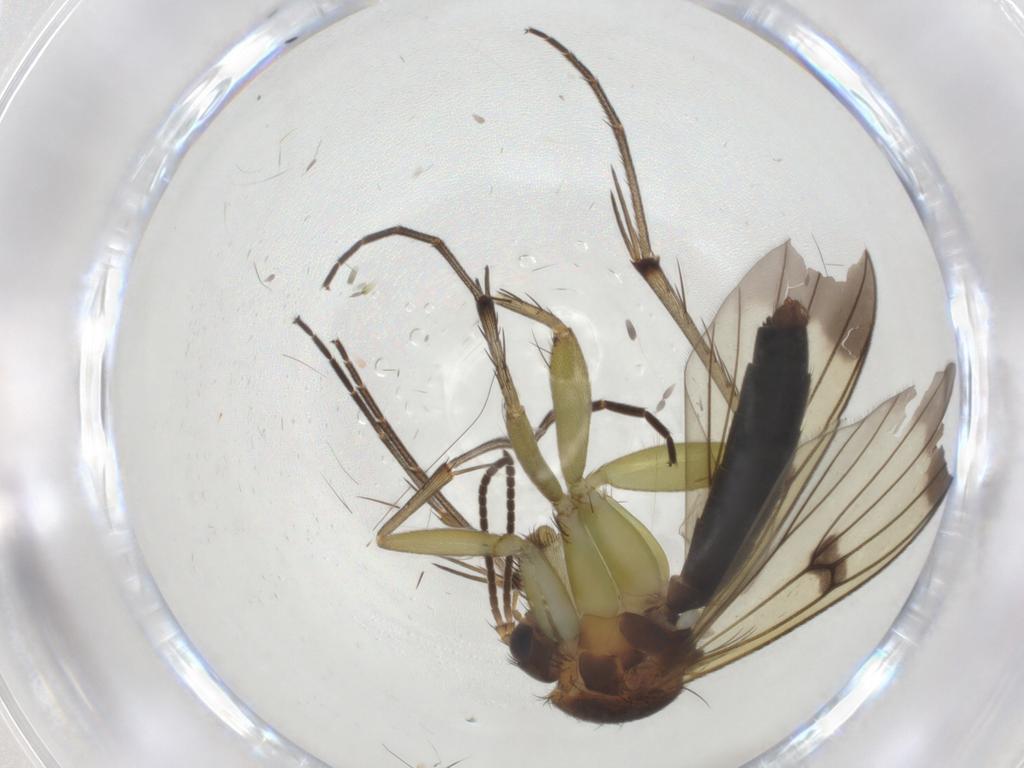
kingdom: Animalia
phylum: Arthropoda
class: Insecta
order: Diptera
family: Mycetophilidae
